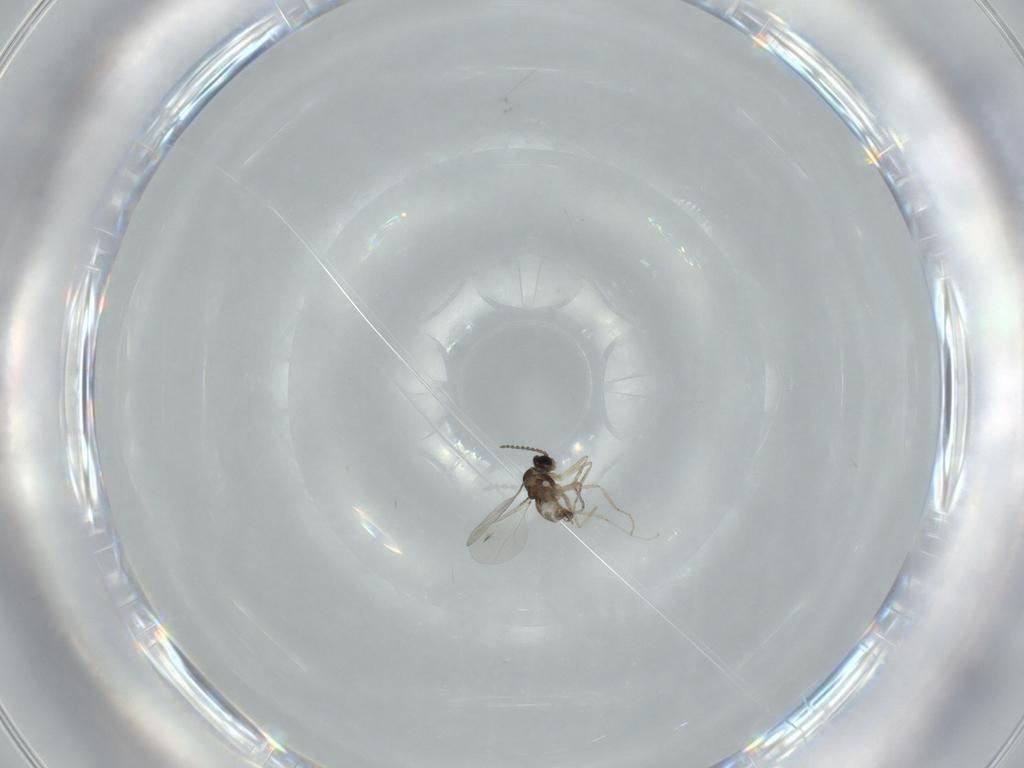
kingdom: Animalia
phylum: Arthropoda
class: Insecta
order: Diptera
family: Cecidomyiidae
